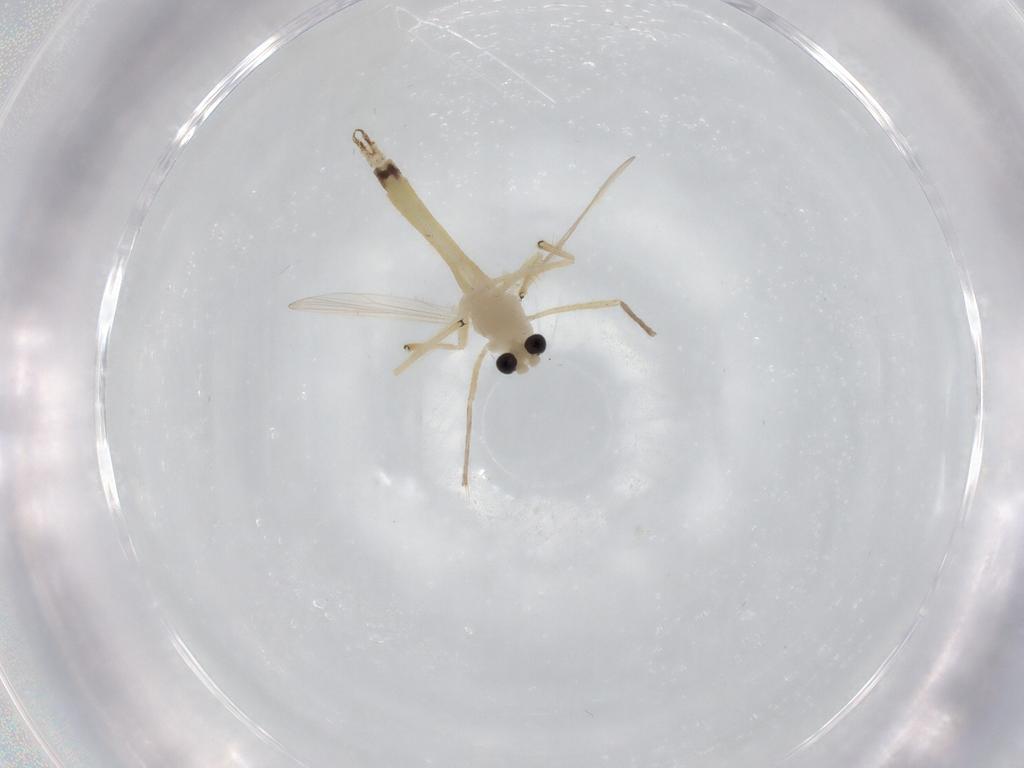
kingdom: Animalia
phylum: Arthropoda
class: Insecta
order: Diptera
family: Chironomidae
